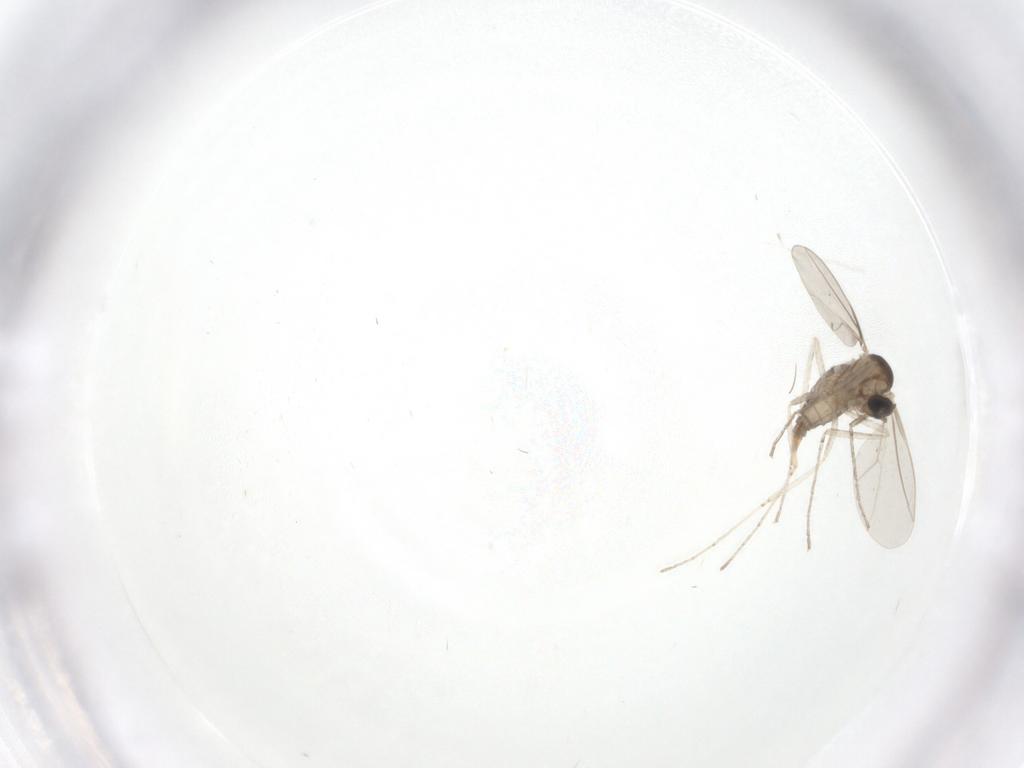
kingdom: Animalia
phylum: Arthropoda
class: Insecta
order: Diptera
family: Cecidomyiidae
